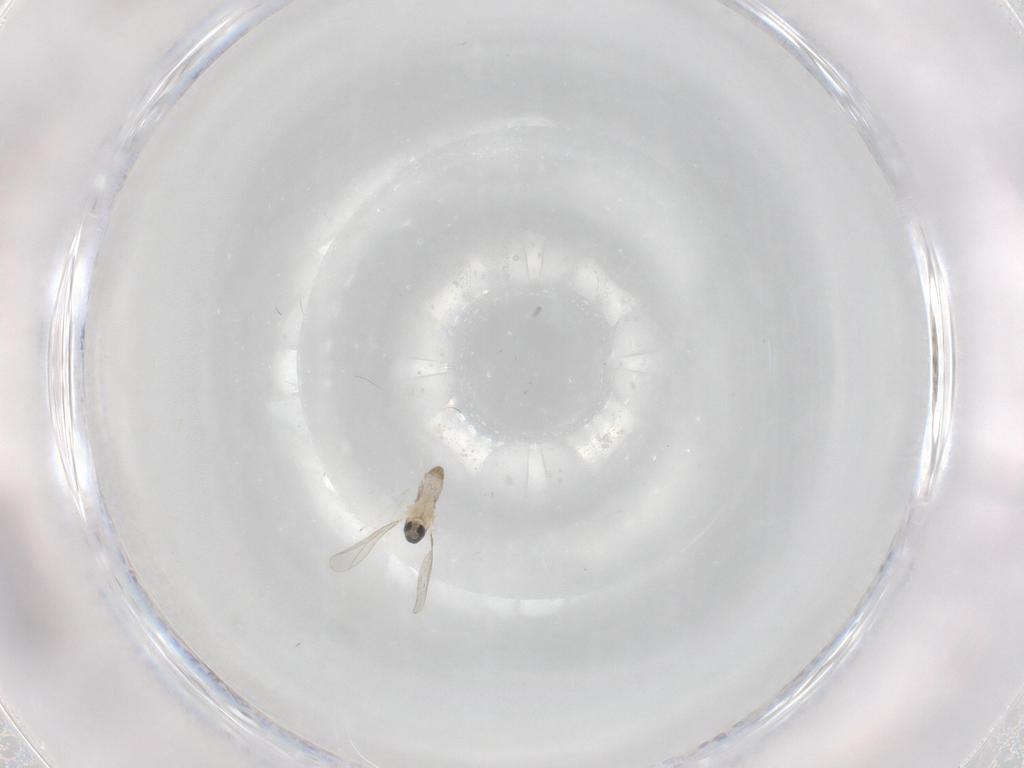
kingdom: Animalia
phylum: Arthropoda
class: Insecta
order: Diptera
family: Cecidomyiidae
